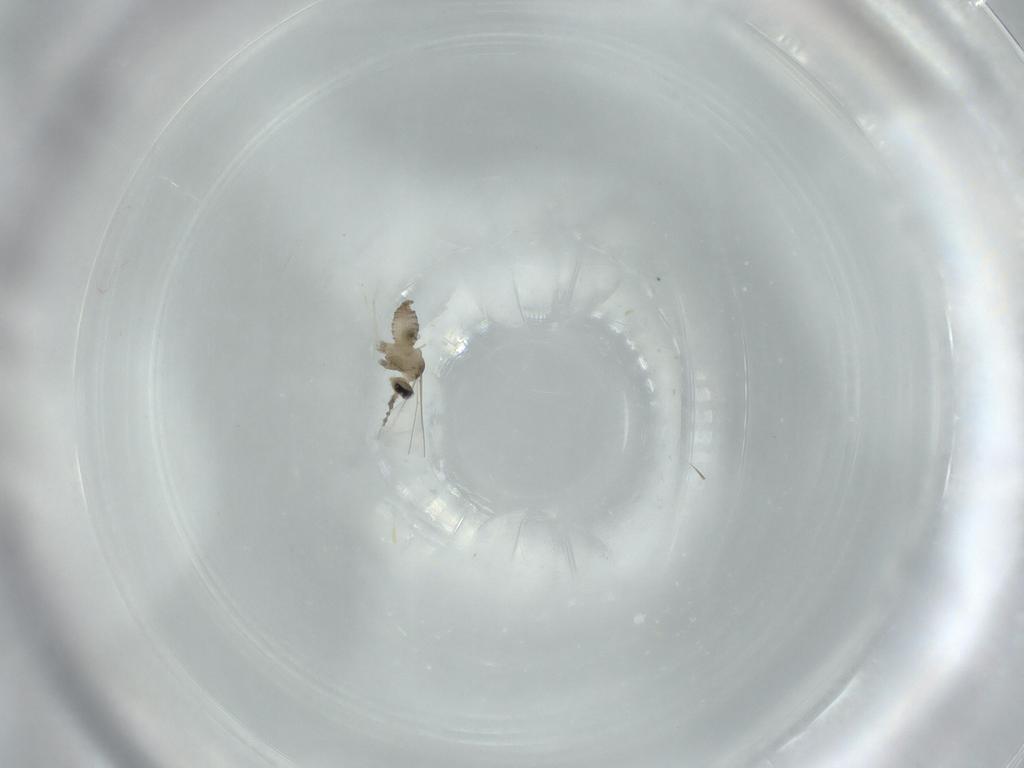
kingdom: Animalia
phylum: Arthropoda
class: Insecta
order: Diptera
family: Cecidomyiidae
